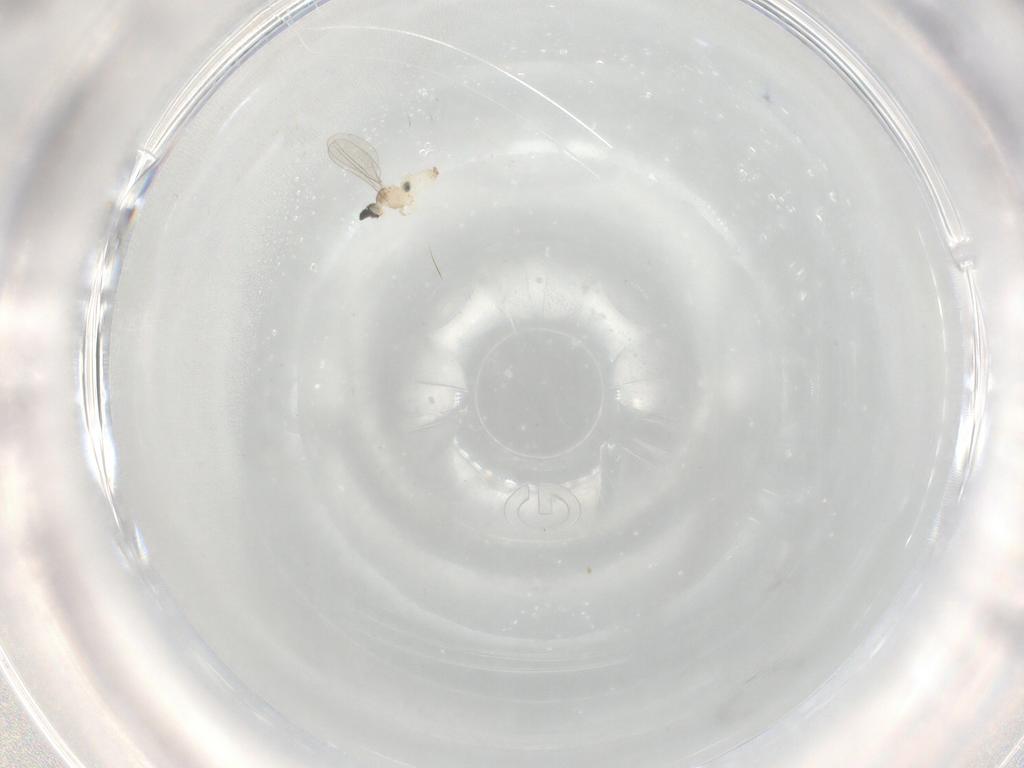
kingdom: Animalia
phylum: Arthropoda
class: Insecta
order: Diptera
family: Cecidomyiidae
